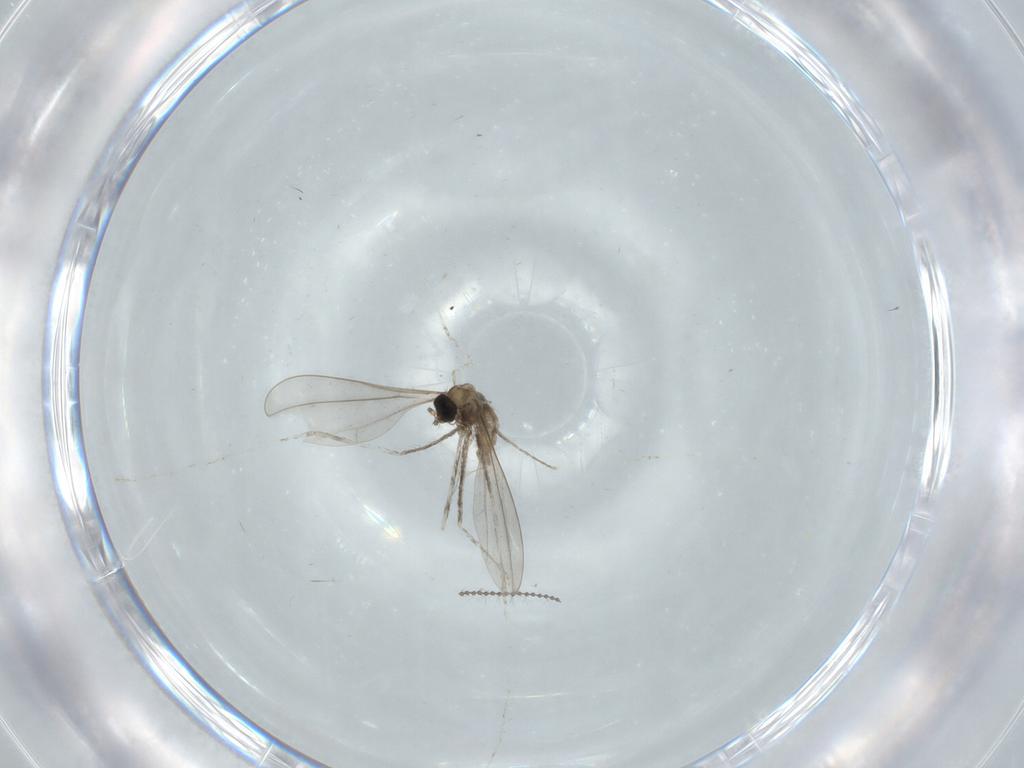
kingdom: Animalia
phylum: Arthropoda
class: Insecta
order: Diptera
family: Cecidomyiidae
